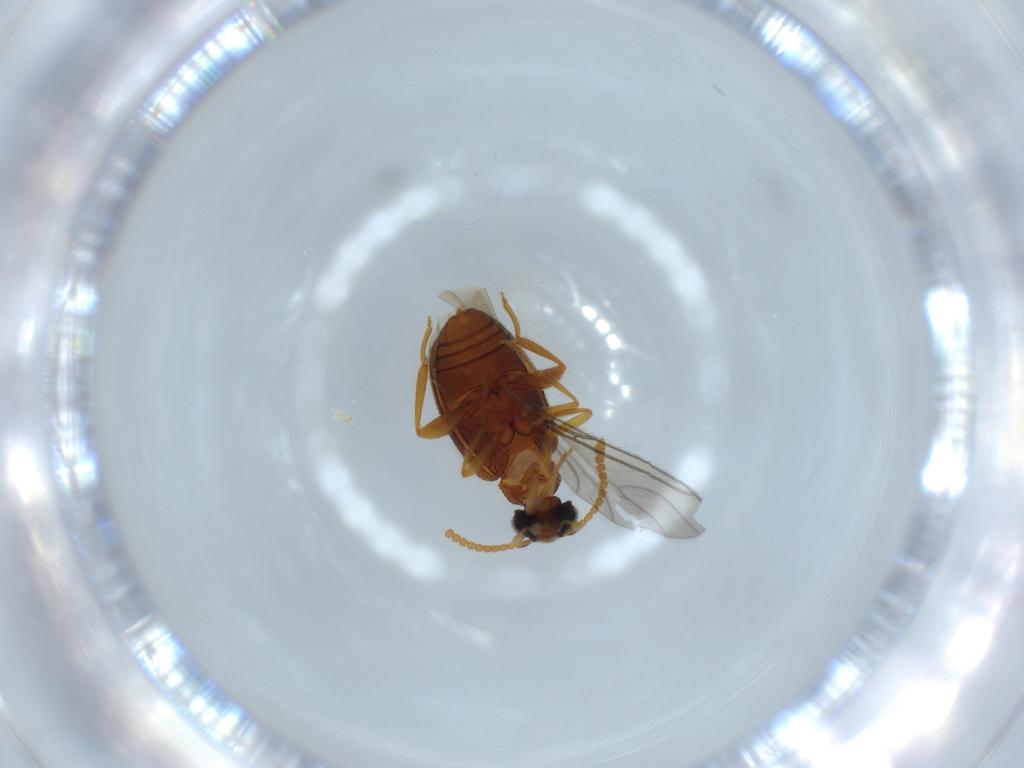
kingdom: Animalia
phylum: Arthropoda
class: Insecta
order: Coleoptera
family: Aderidae
